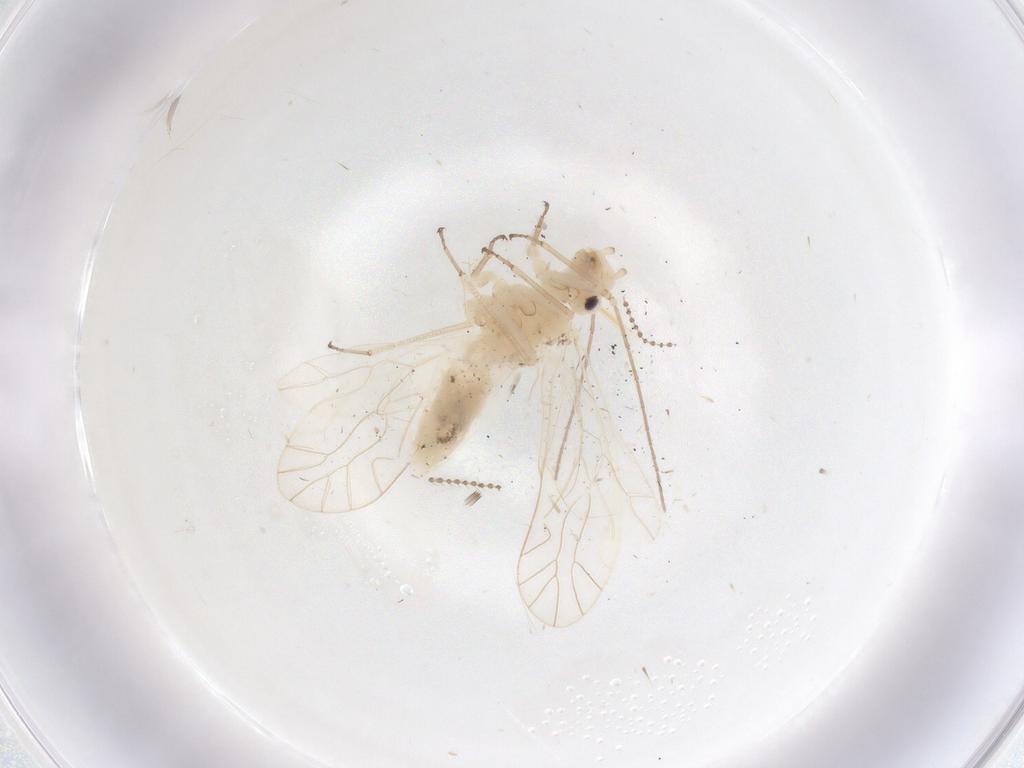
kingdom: Animalia
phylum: Arthropoda
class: Insecta
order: Diptera
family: Cecidomyiidae
